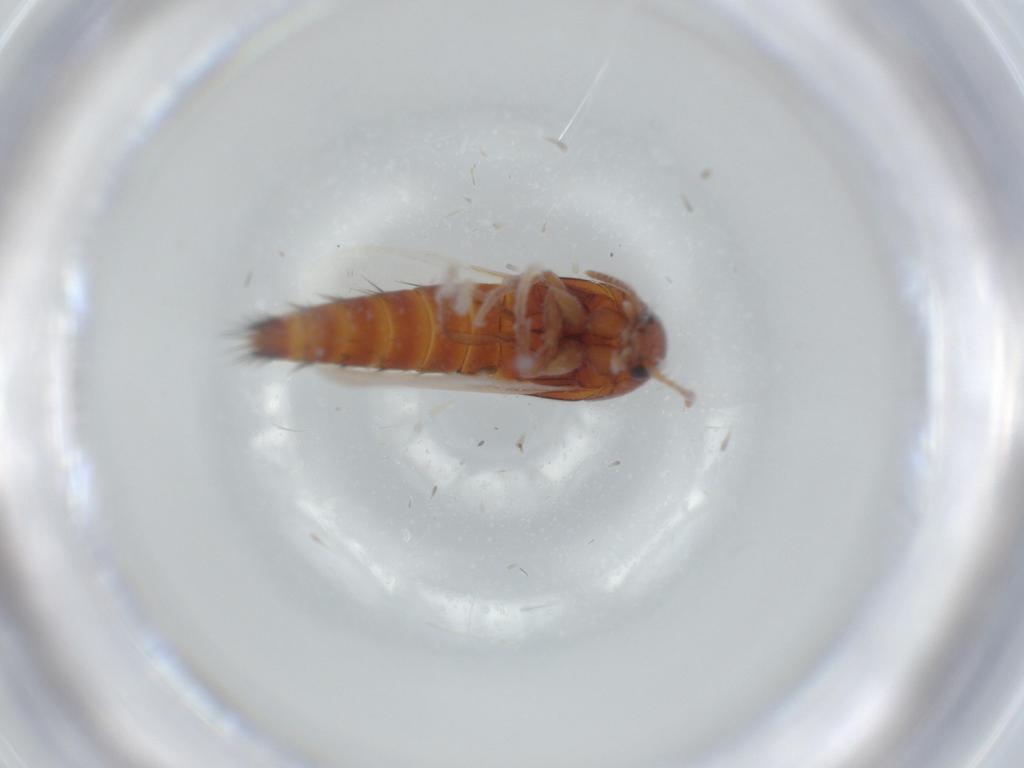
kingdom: Animalia
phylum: Arthropoda
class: Insecta
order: Coleoptera
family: Staphylinidae
